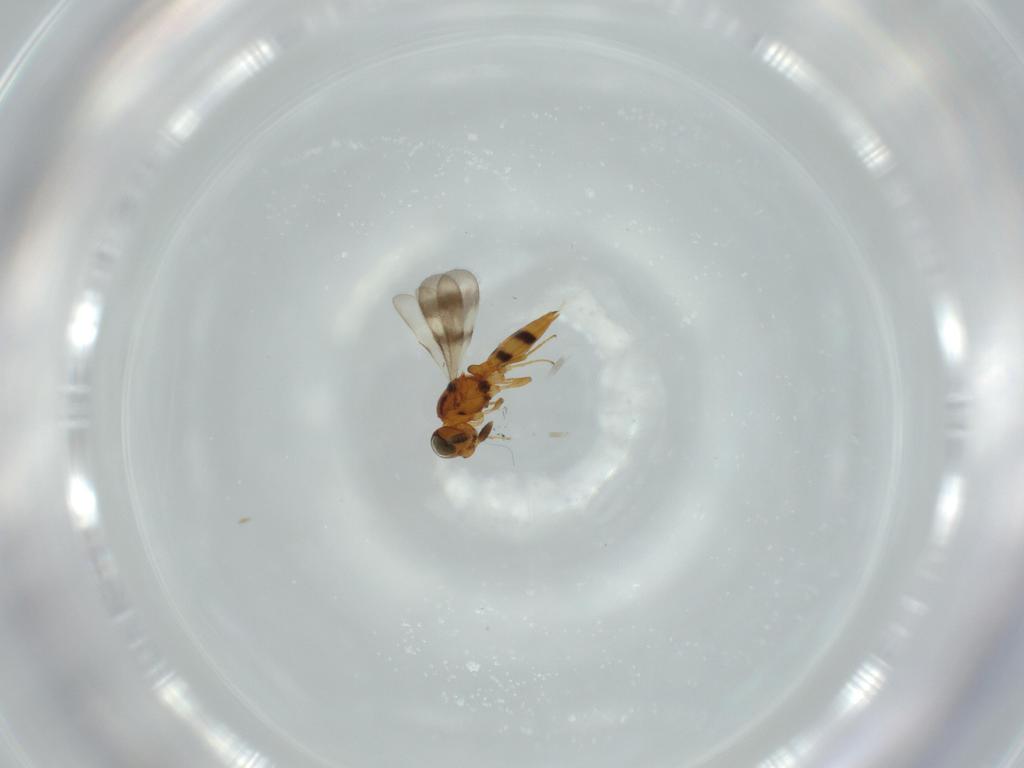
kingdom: Animalia
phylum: Arthropoda
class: Insecta
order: Hymenoptera
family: Scelionidae
